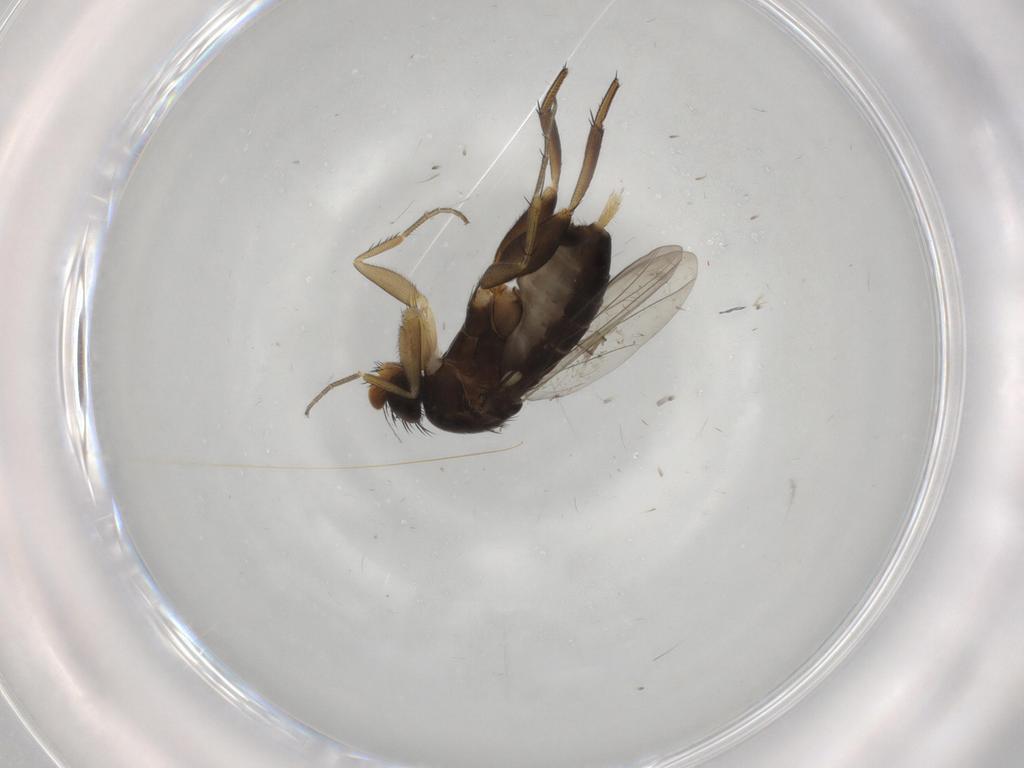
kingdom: Animalia
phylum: Arthropoda
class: Insecta
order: Diptera
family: Phoridae
